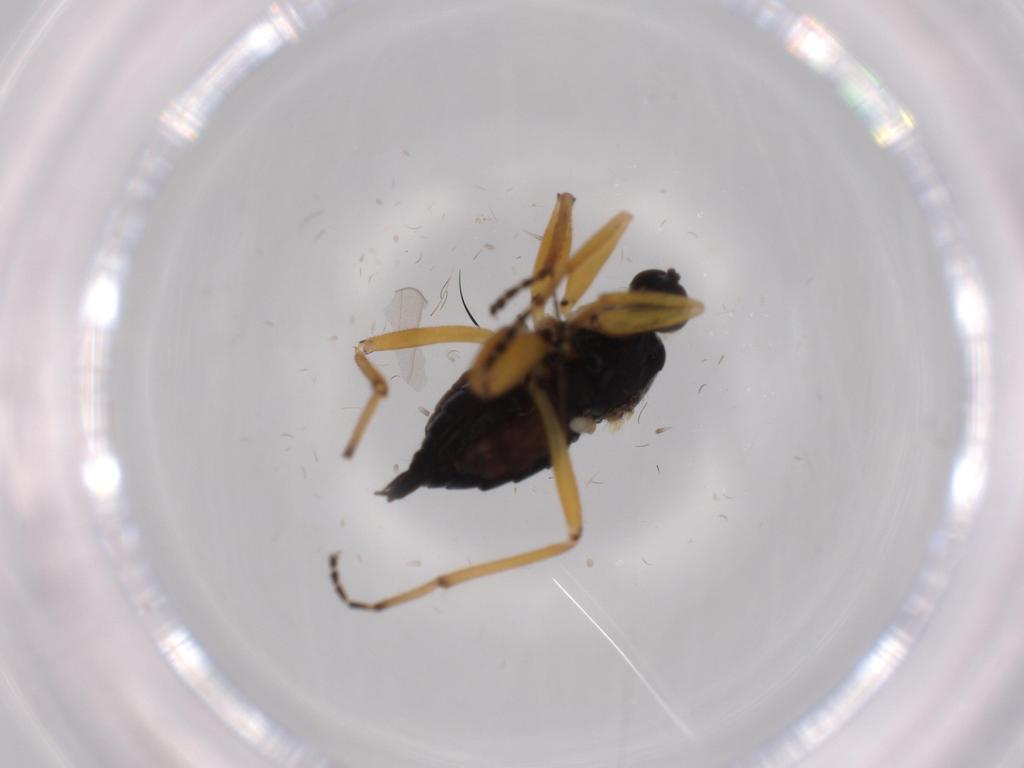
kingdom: Animalia
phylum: Arthropoda
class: Insecta
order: Diptera
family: Sciaridae
